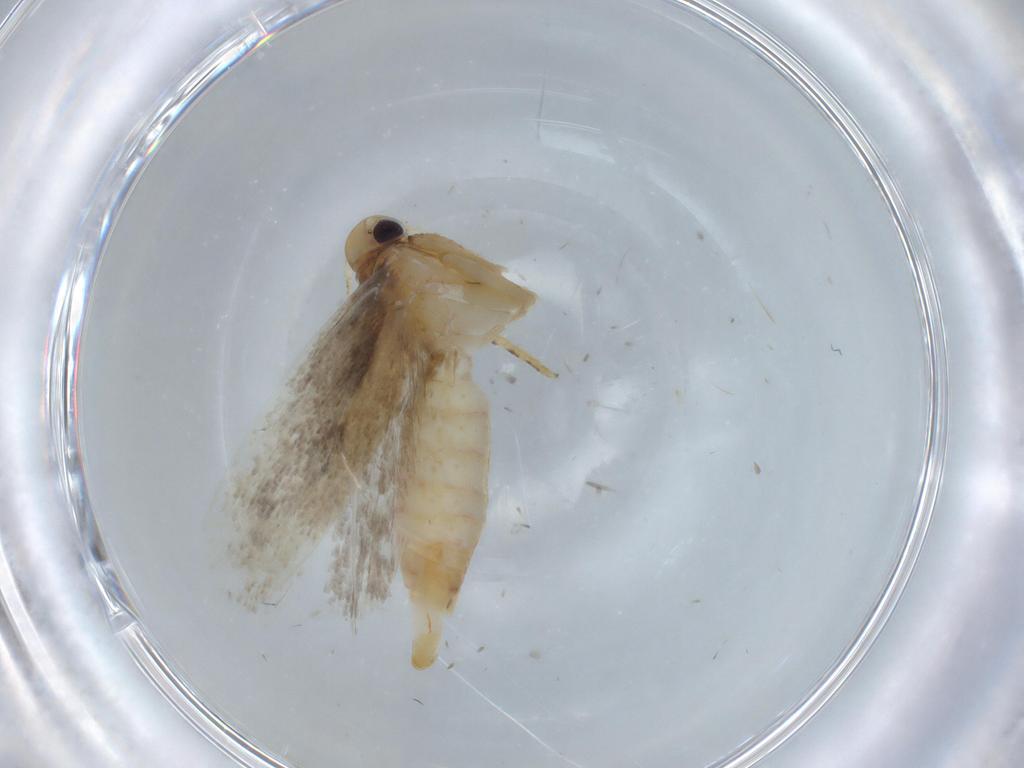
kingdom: Animalia
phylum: Arthropoda
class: Insecta
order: Lepidoptera
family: Crambidae
